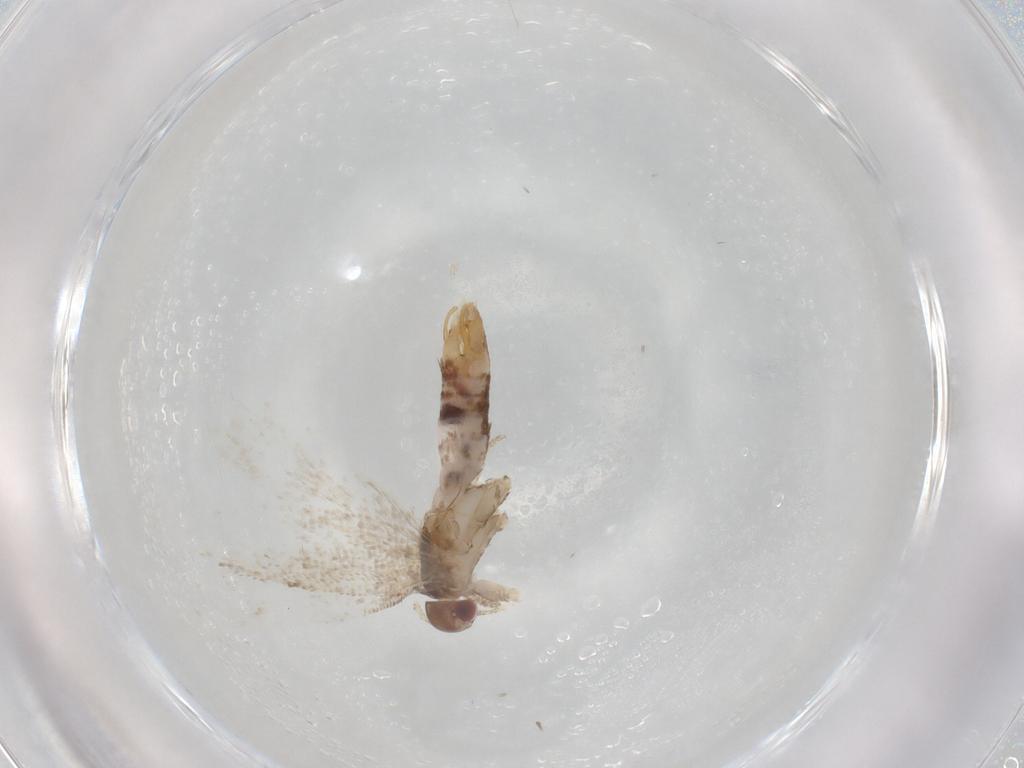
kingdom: Animalia
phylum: Arthropoda
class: Insecta
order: Lepidoptera
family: Gelechiidae
